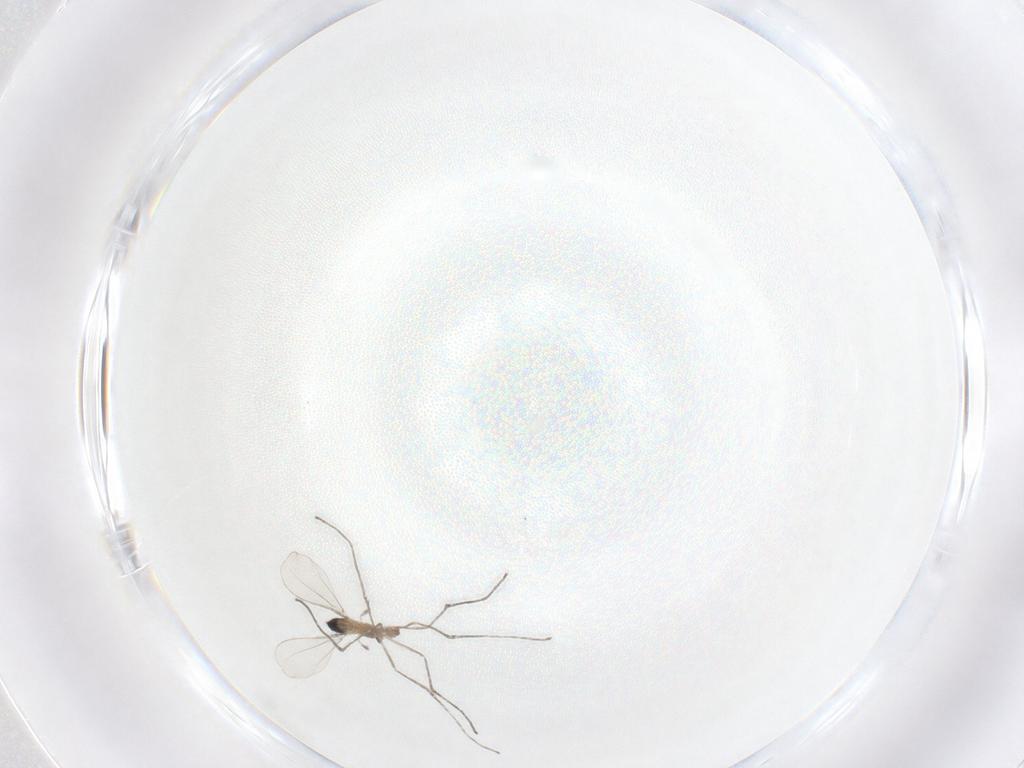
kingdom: Animalia
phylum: Arthropoda
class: Insecta
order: Diptera
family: Cecidomyiidae
